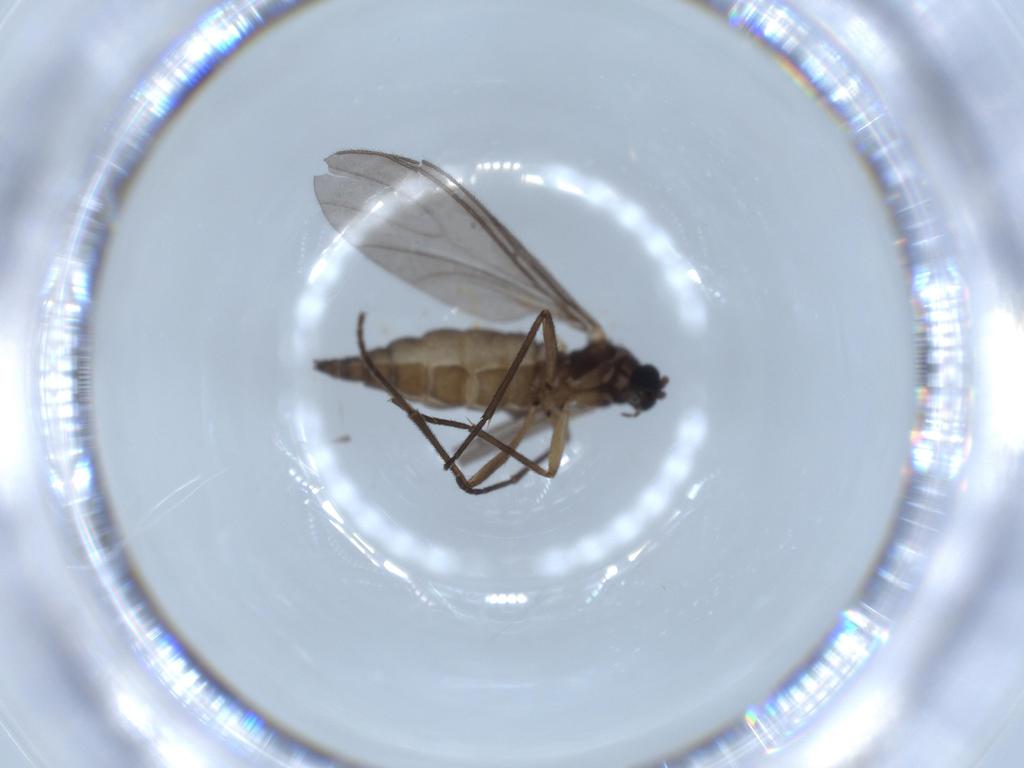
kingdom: Animalia
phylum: Arthropoda
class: Insecta
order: Diptera
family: Sciaridae
